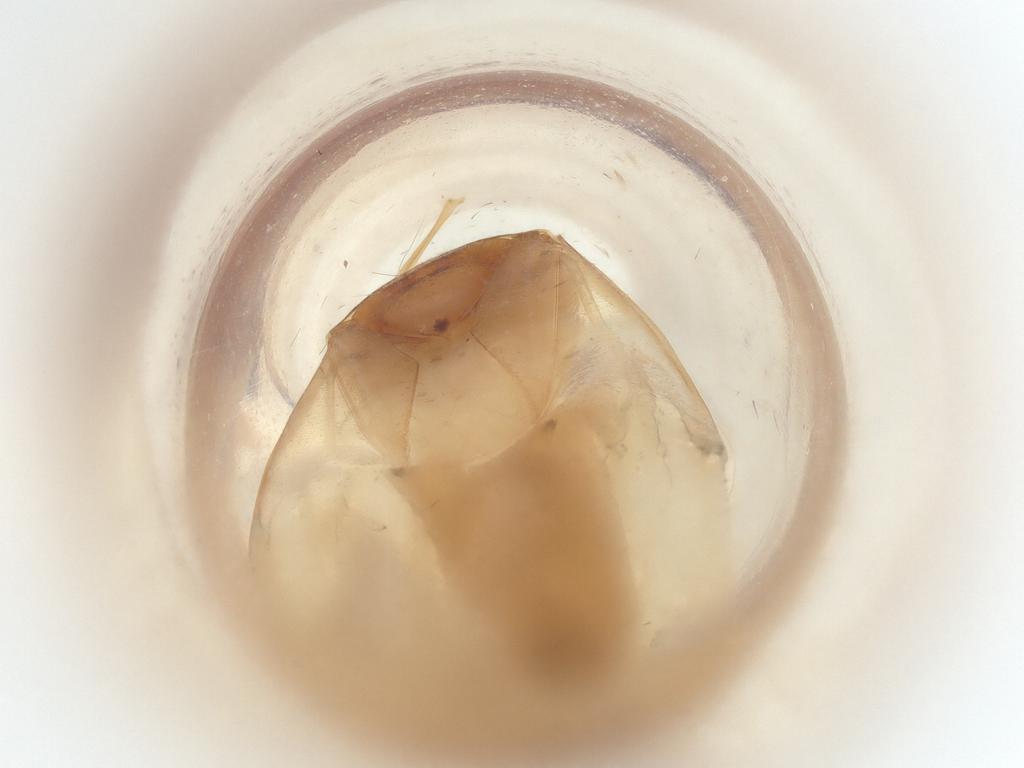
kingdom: Animalia
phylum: Arthropoda
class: Insecta
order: Hemiptera
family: Miridae
